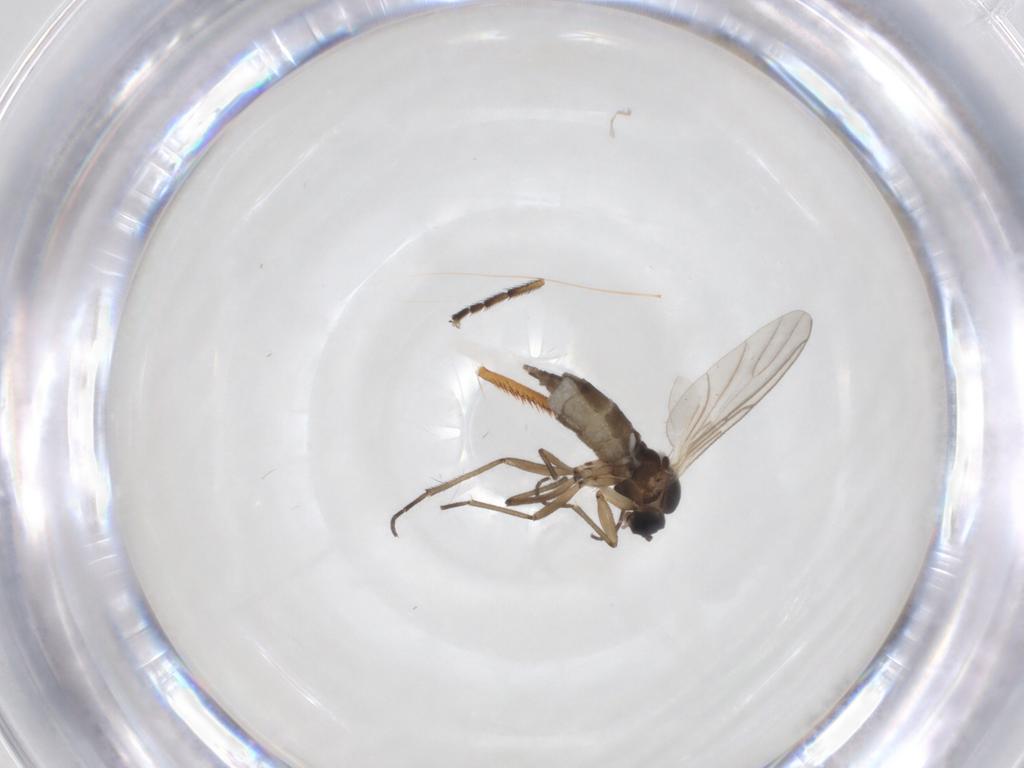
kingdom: Animalia
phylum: Arthropoda
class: Insecta
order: Diptera
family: Empididae
